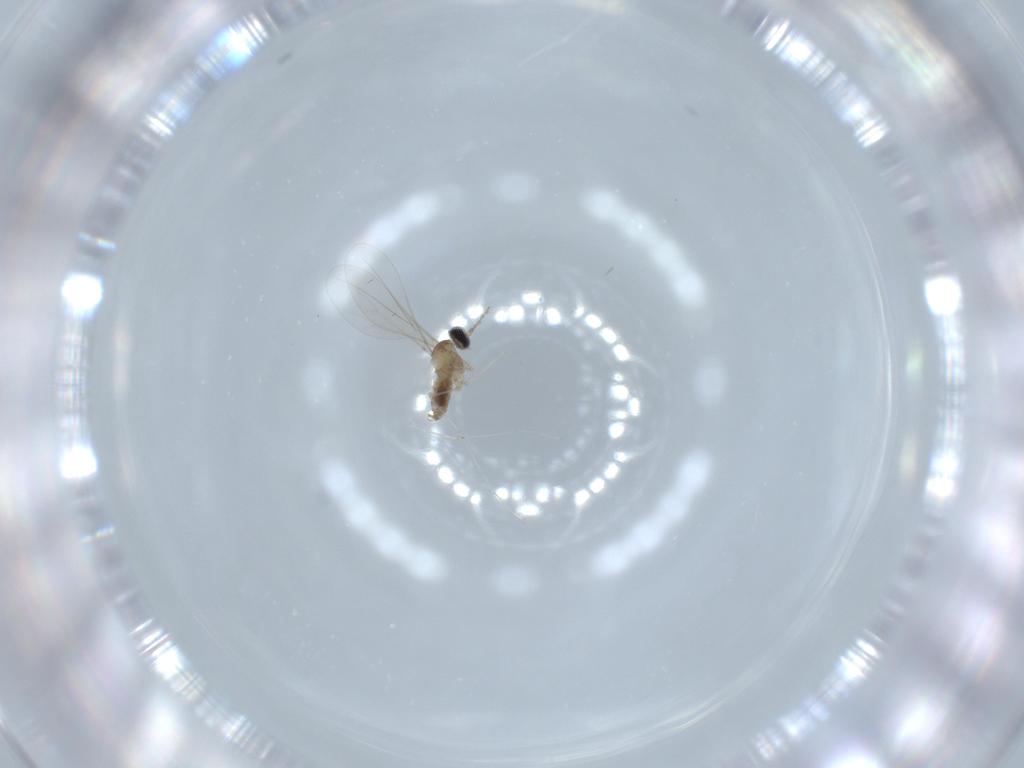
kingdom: Animalia
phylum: Arthropoda
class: Insecta
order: Diptera
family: Cecidomyiidae
